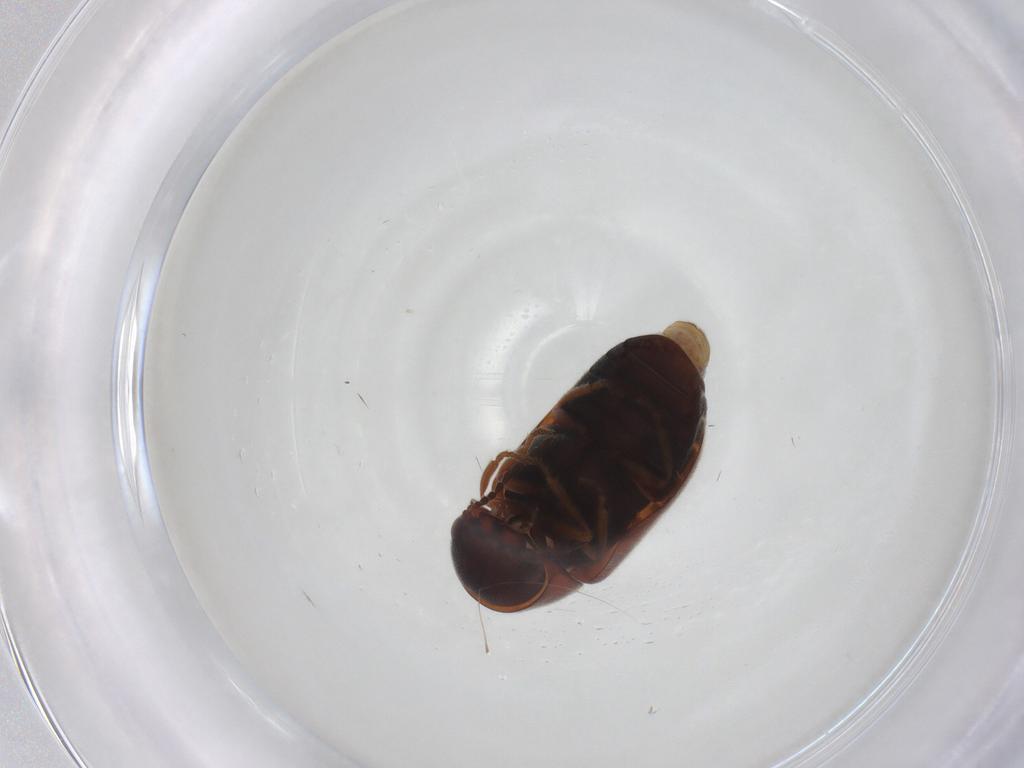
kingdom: Animalia
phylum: Arthropoda
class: Insecta
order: Coleoptera
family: Ptinidae
